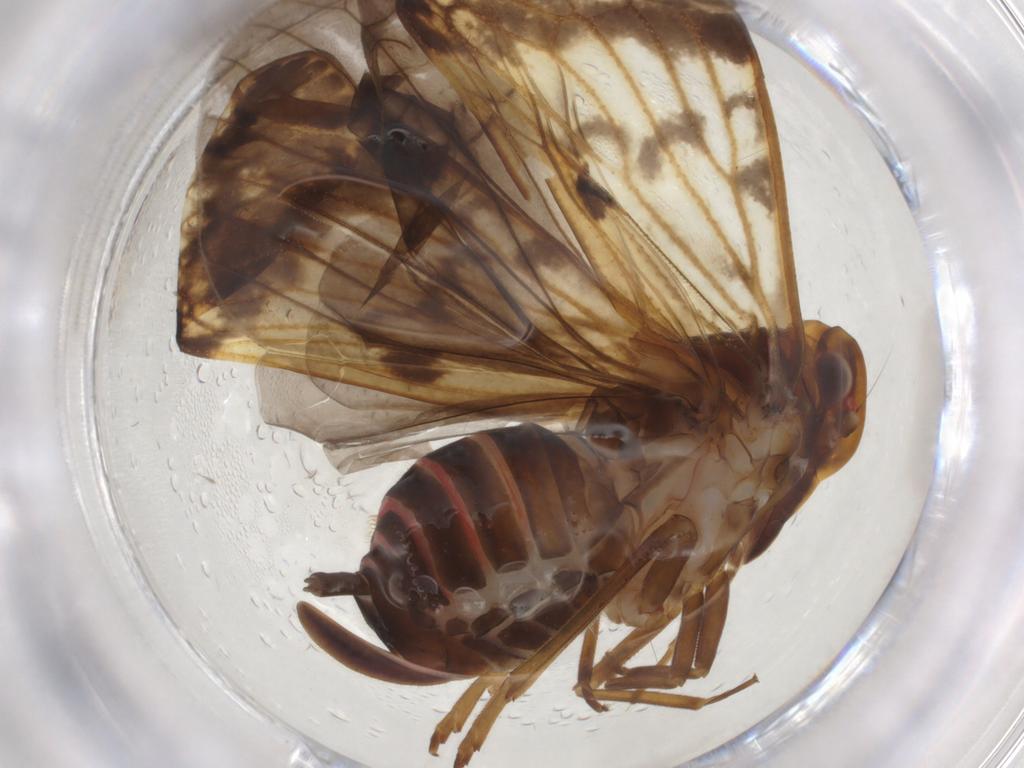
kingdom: Animalia
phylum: Arthropoda
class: Insecta
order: Hemiptera
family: Cixiidae
